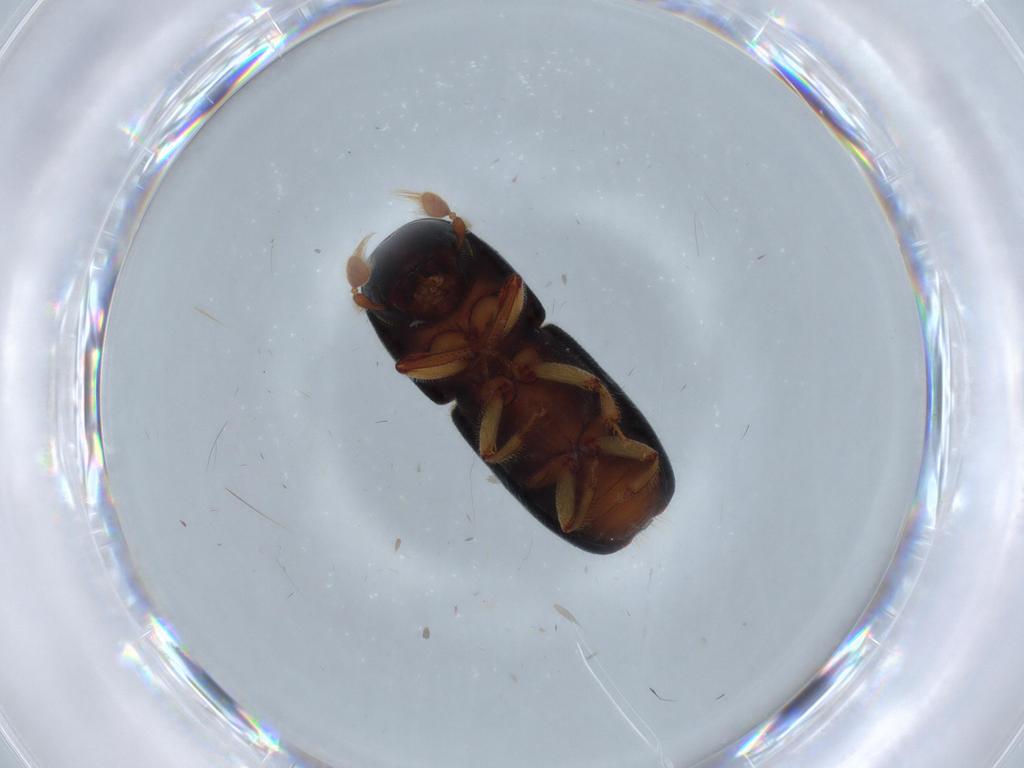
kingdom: Animalia
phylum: Arthropoda
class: Insecta
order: Coleoptera
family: Curculionidae
